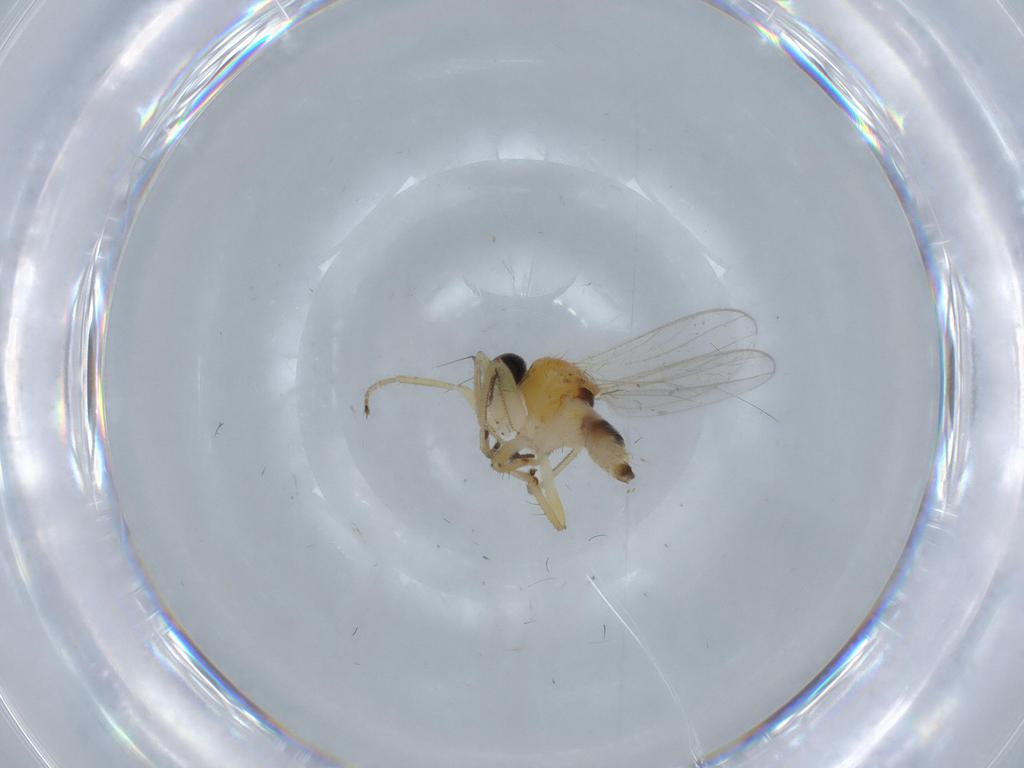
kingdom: Animalia
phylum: Arthropoda
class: Insecta
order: Diptera
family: Hybotidae
